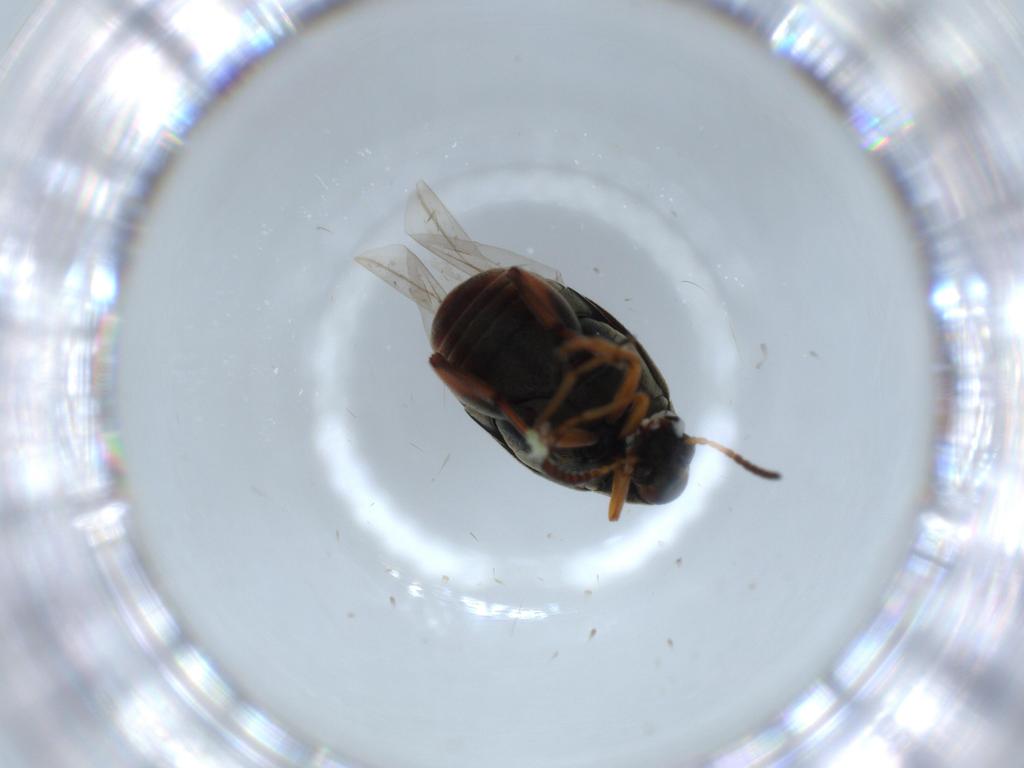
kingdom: Animalia
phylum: Arthropoda
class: Insecta
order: Coleoptera
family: Chrysomelidae
